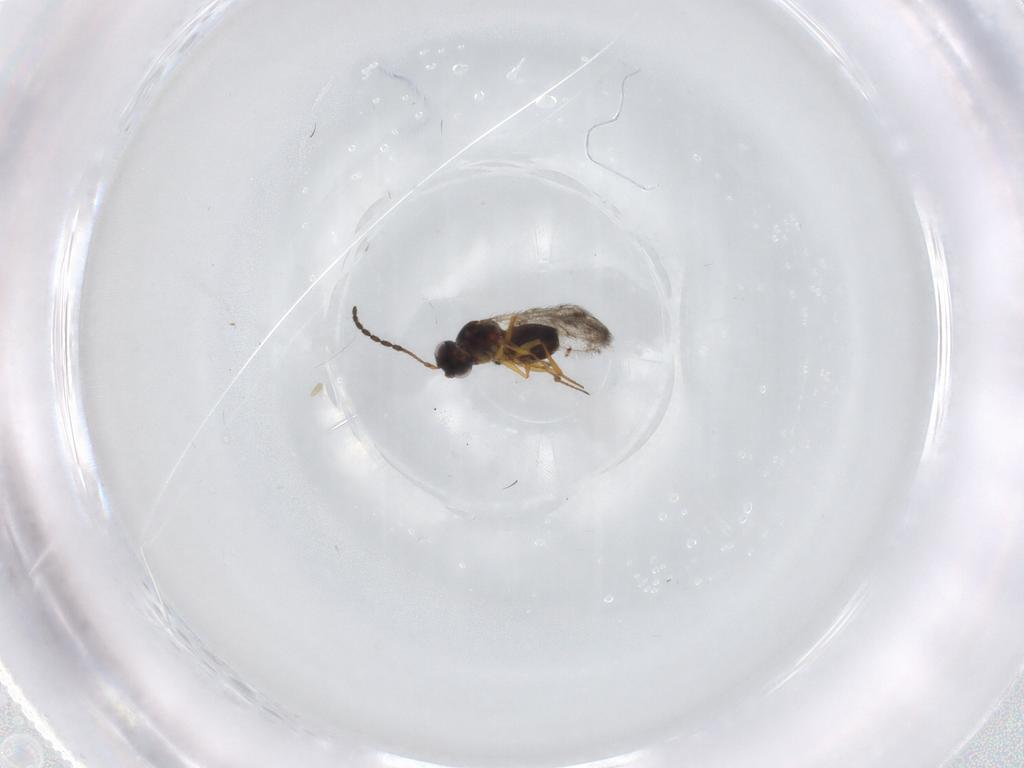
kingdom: Animalia
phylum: Arthropoda
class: Insecta
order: Hymenoptera
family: Figitidae
